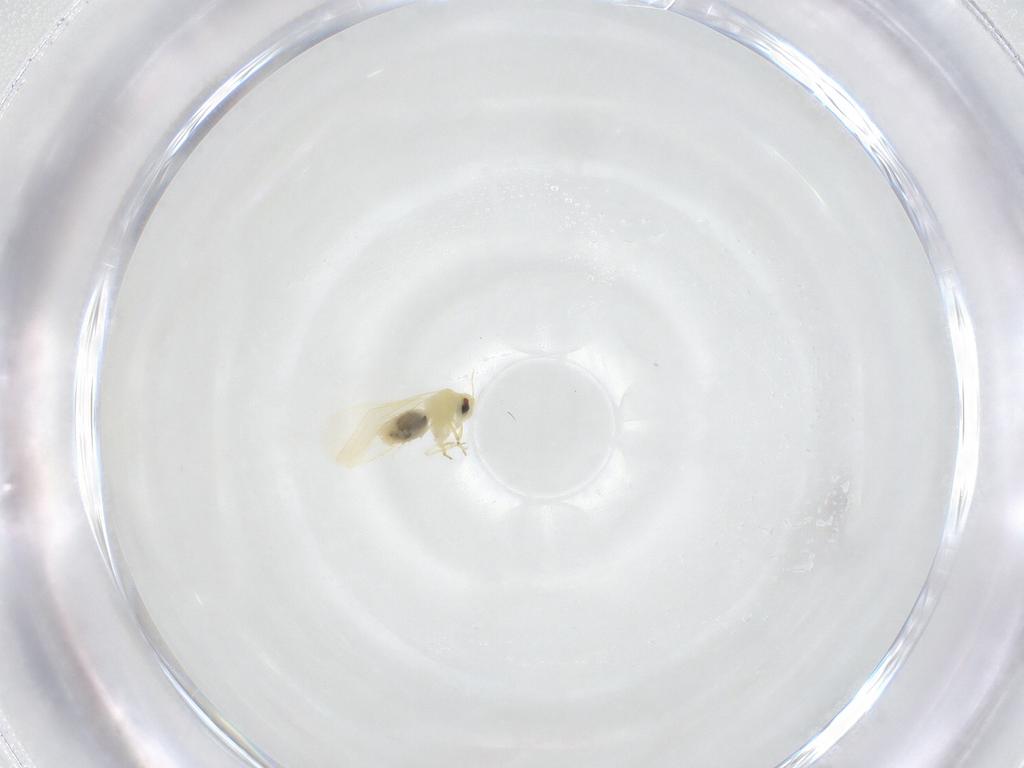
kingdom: Animalia
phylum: Arthropoda
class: Insecta
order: Hemiptera
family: Aleyrodidae
